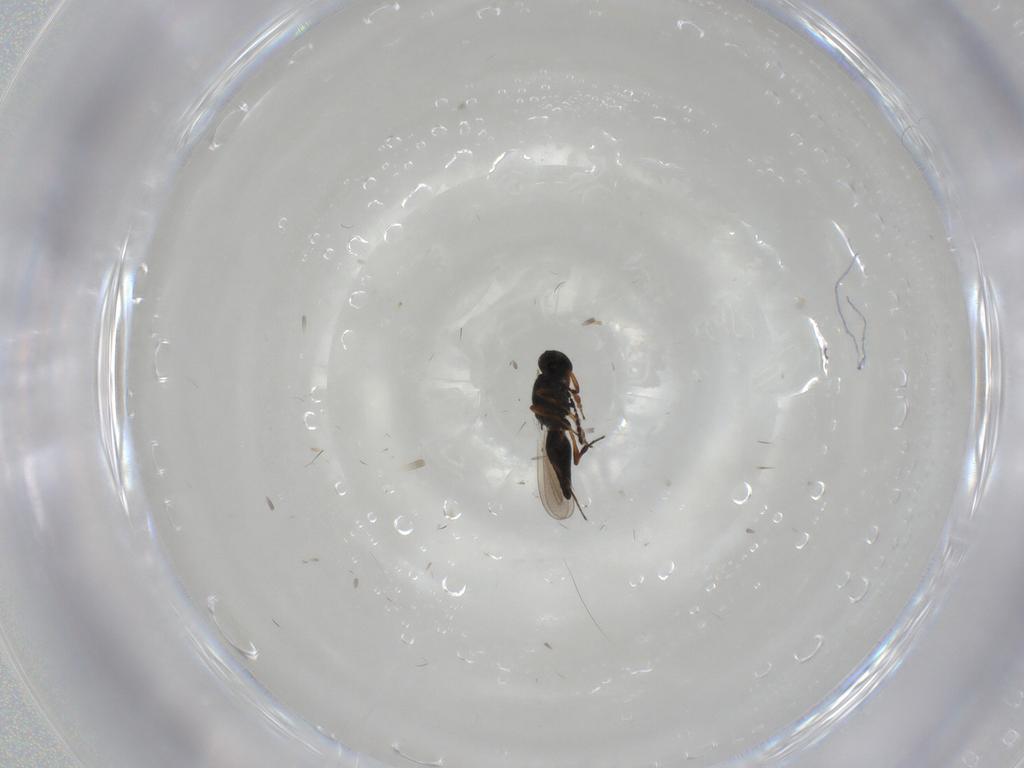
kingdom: Animalia
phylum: Arthropoda
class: Insecta
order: Hymenoptera
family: Platygastridae
